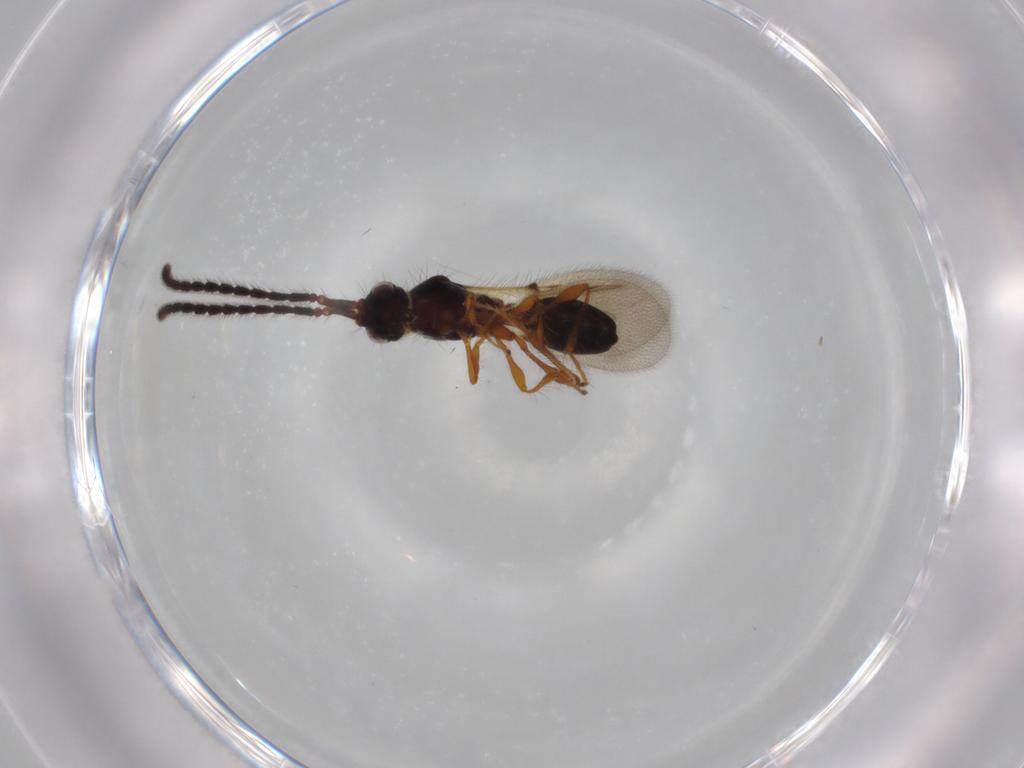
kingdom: Animalia
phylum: Arthropoda
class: Insecta
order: Hymenoptera
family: Diapriidae
